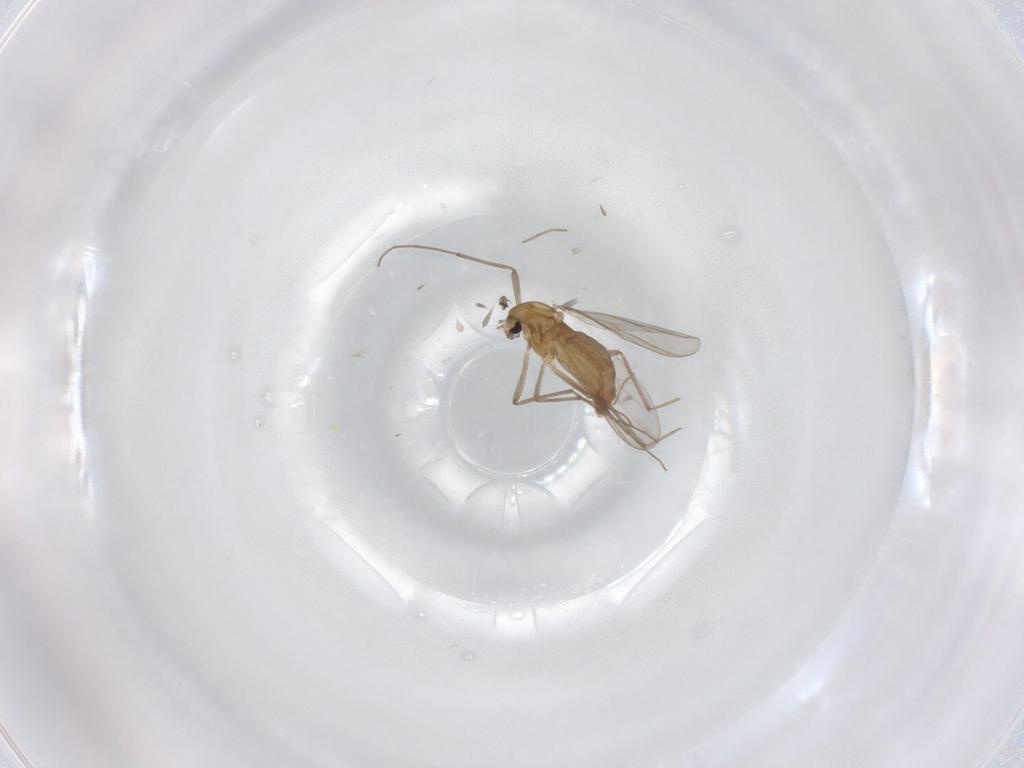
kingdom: Animalia
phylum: Arthropoda
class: Insecta
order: Diptera
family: Chironomidae
